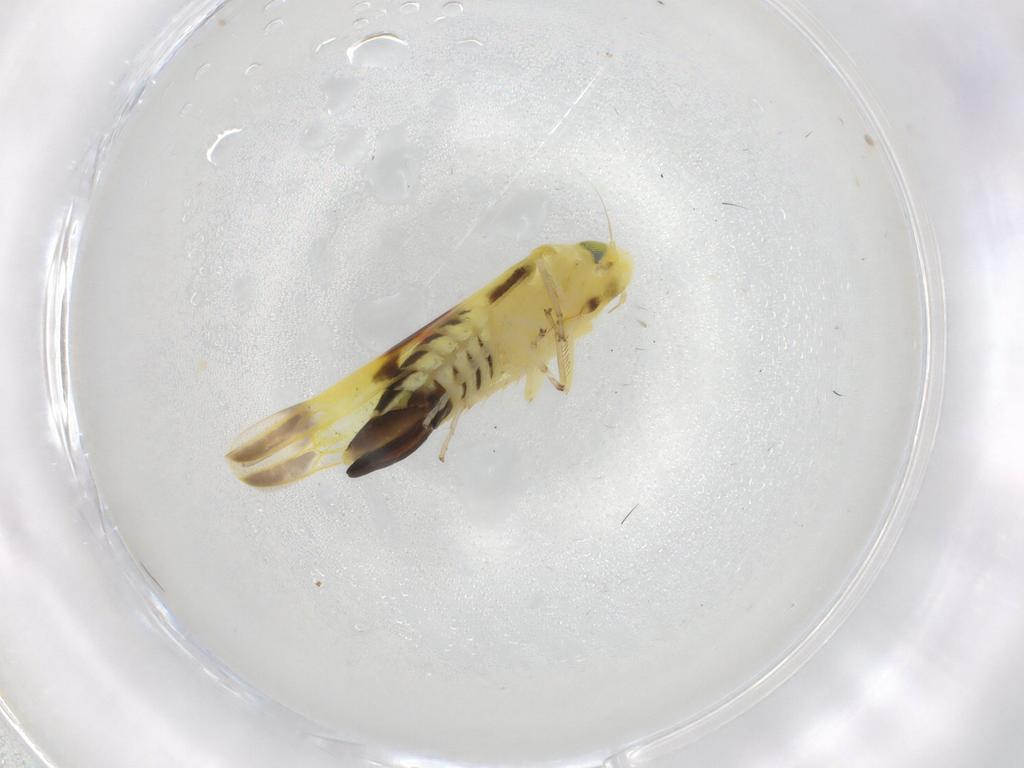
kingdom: Animalia
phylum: Arthropoda
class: Insecta
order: Hemiptera
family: Cicadellidae
